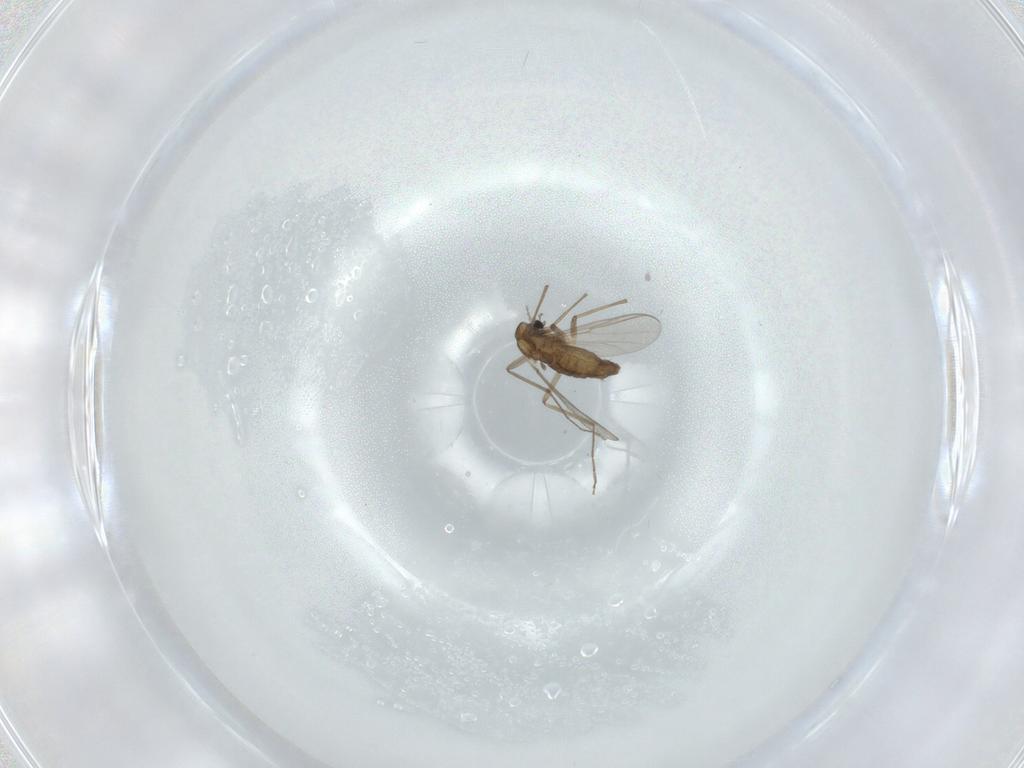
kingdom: Animalia
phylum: Arthropoda
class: Insecta
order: Diptera
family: Chironomidae
